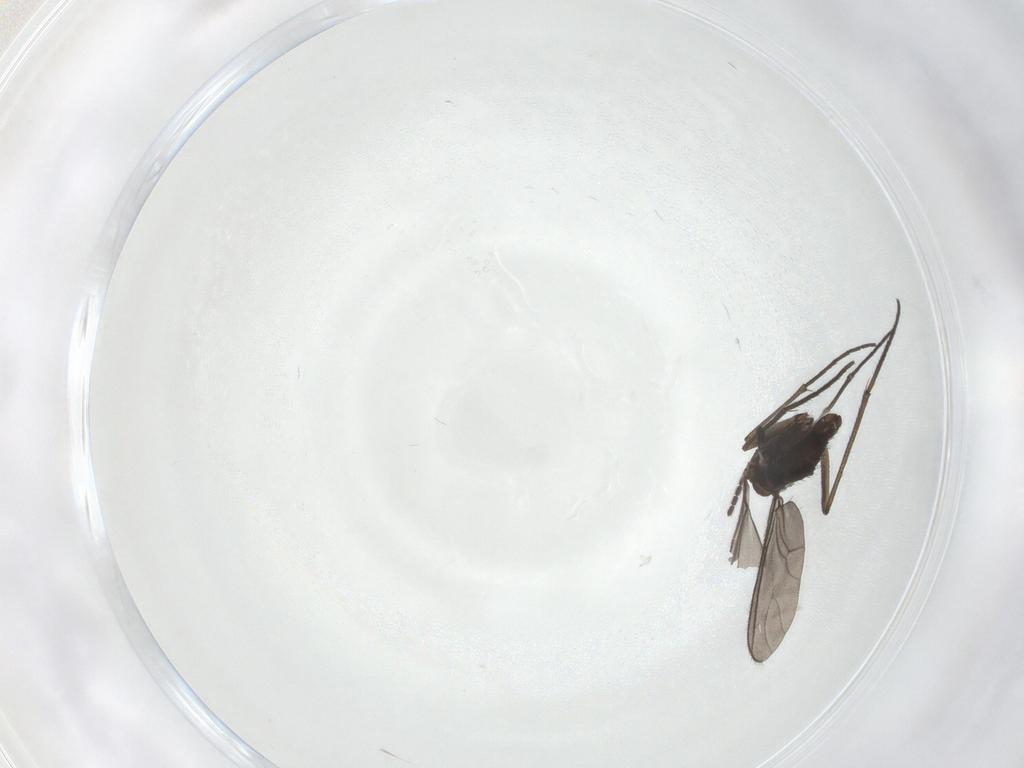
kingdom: Animalia
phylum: Arthropoda
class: Insecta
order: Diptera
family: Sciaridae
